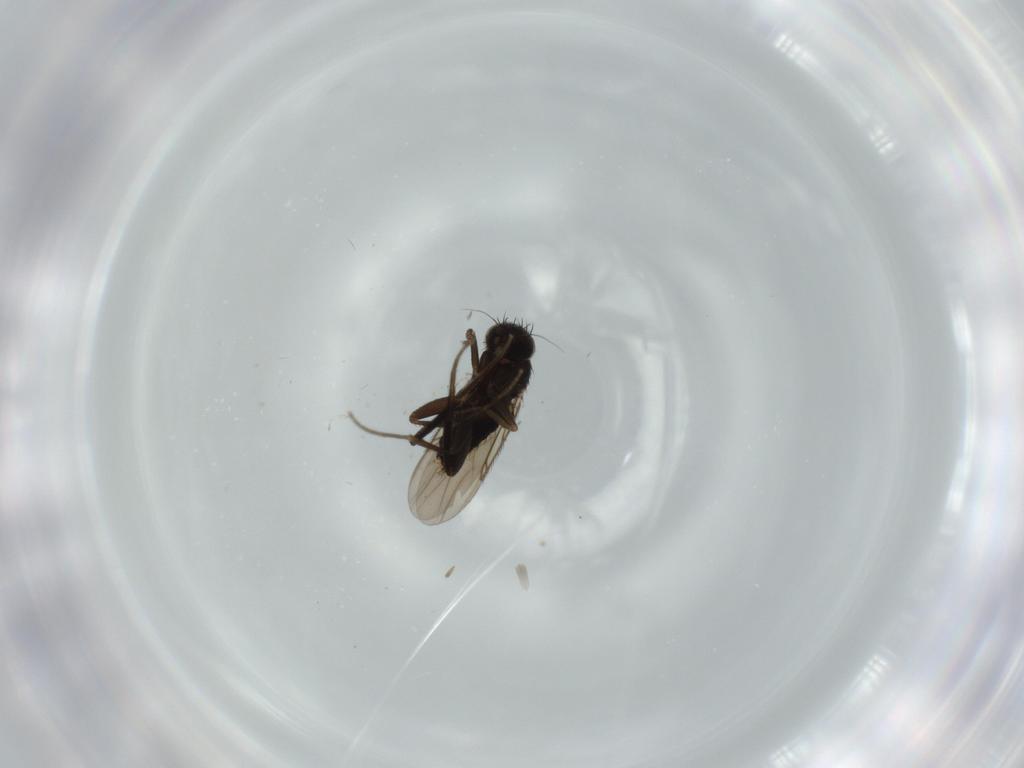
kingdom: Animalia
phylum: Arthropoda
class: Insecta
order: Diptera
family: Phoridae
